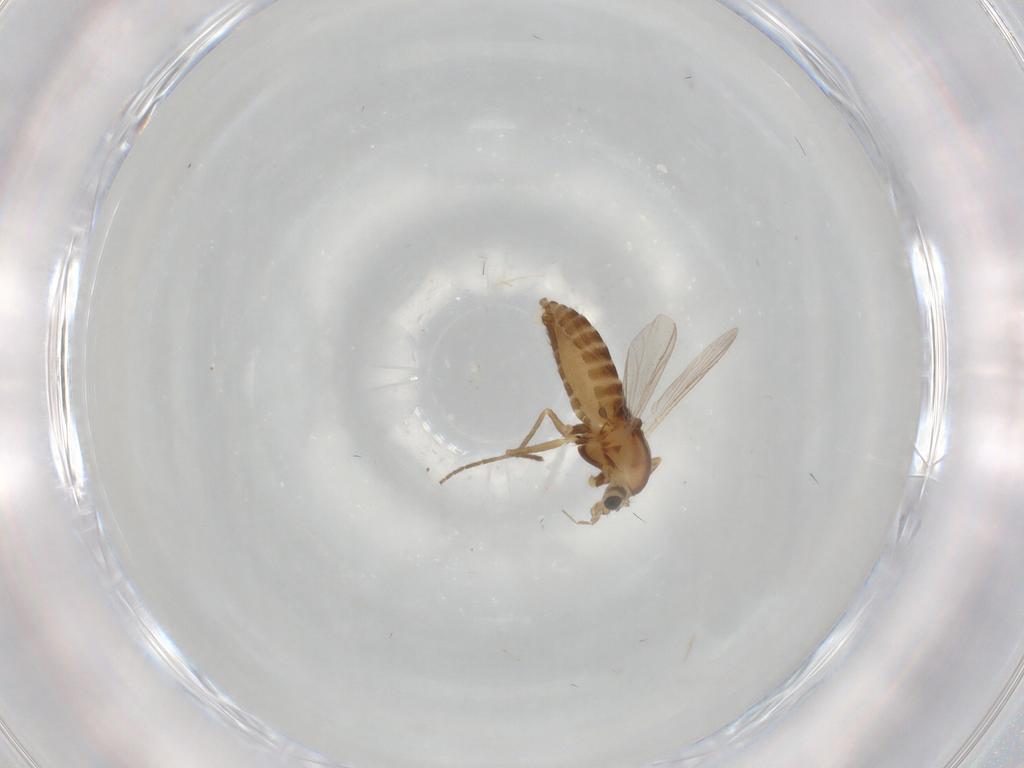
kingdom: Animalia
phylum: Arthropoda
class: Insecta
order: Diptera
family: Chironomidae
